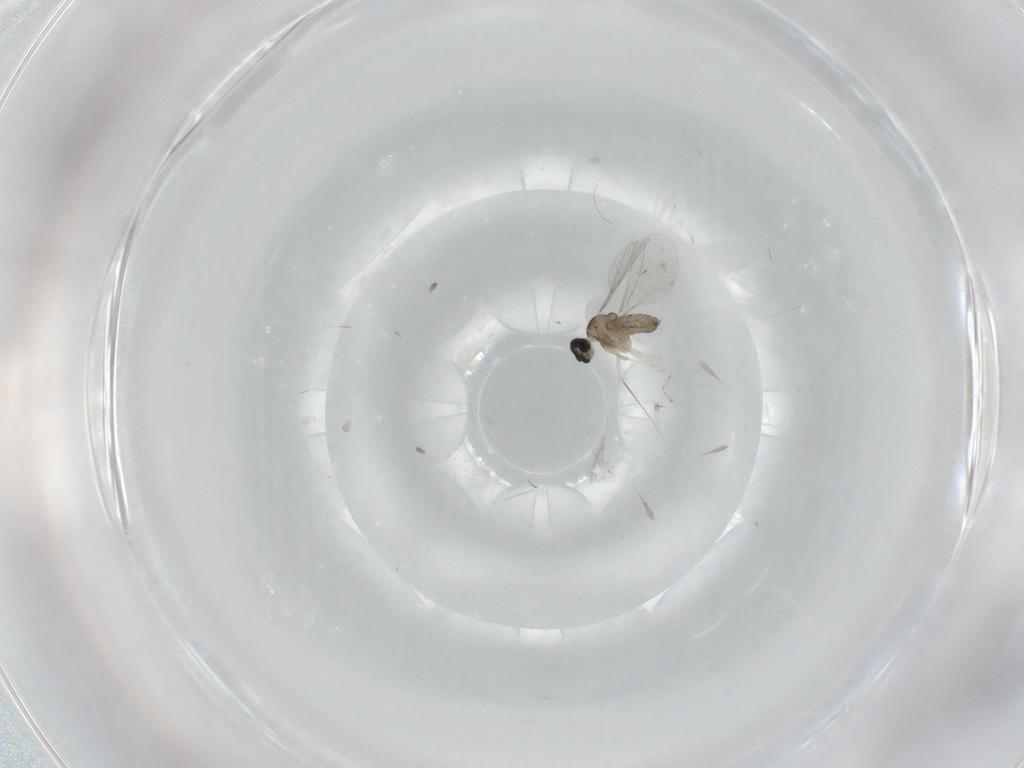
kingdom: Animalia
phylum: Arthropoda
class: Insecta
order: Diptera
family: Cecidomyiidae
